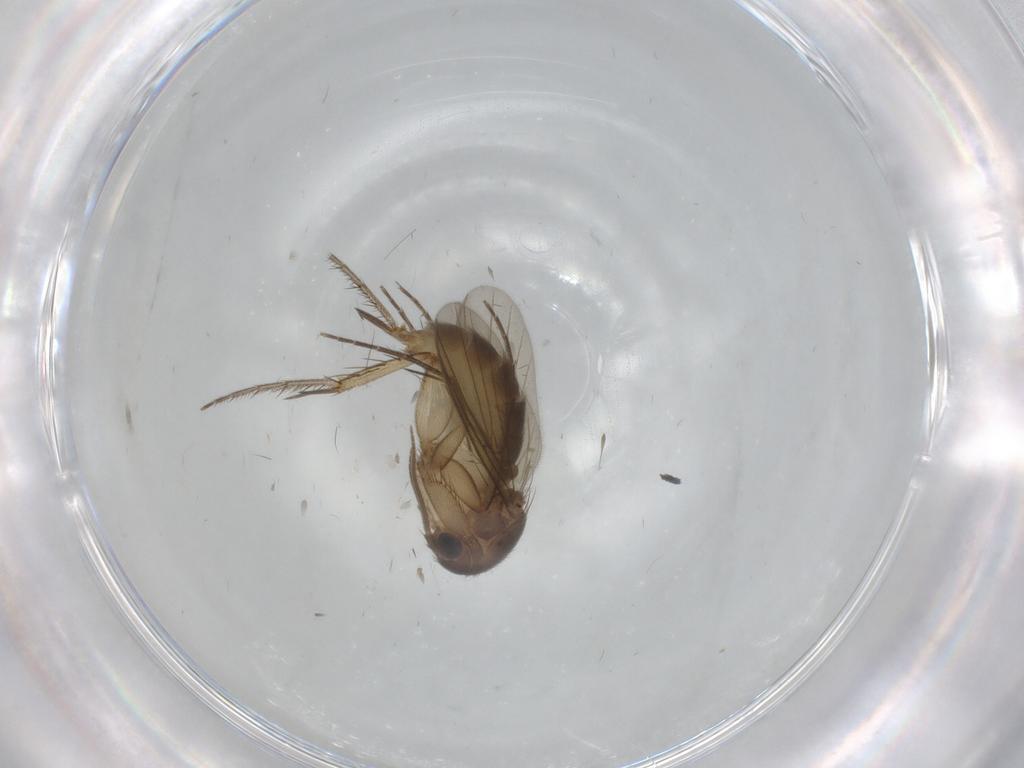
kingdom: Animalia
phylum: Arthropoda
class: Insecta
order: Diptera
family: Mycetophilidae
